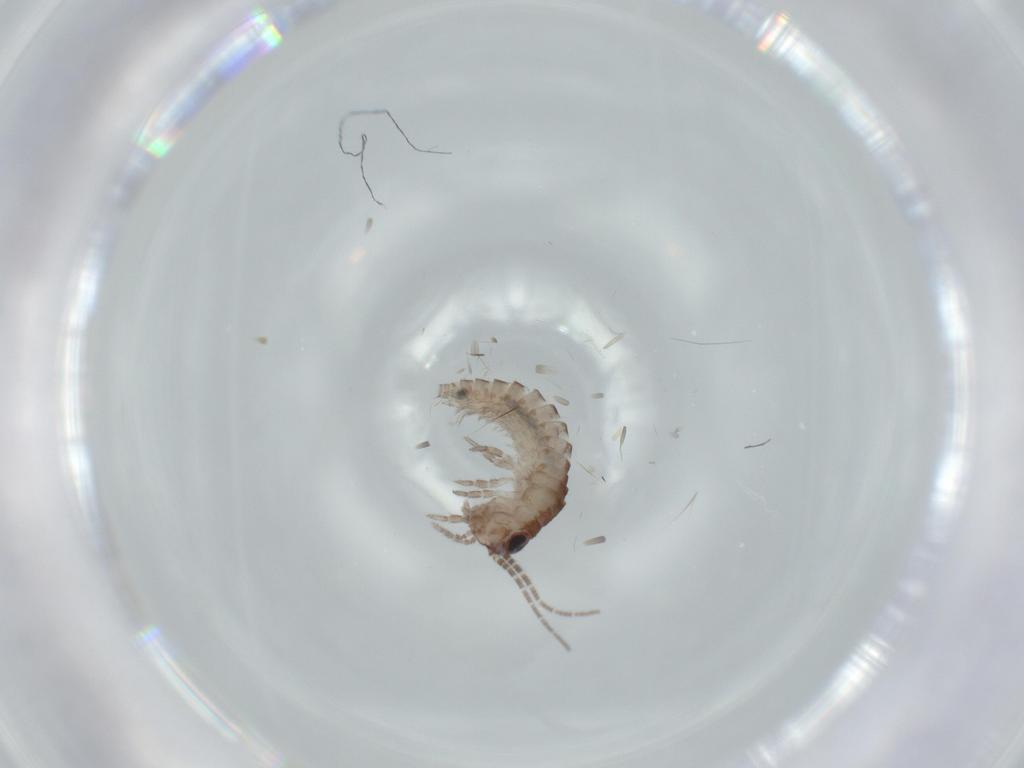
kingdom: Animalia
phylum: Arthropoda
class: Insecta
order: Archaeognatha
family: Machilidae
